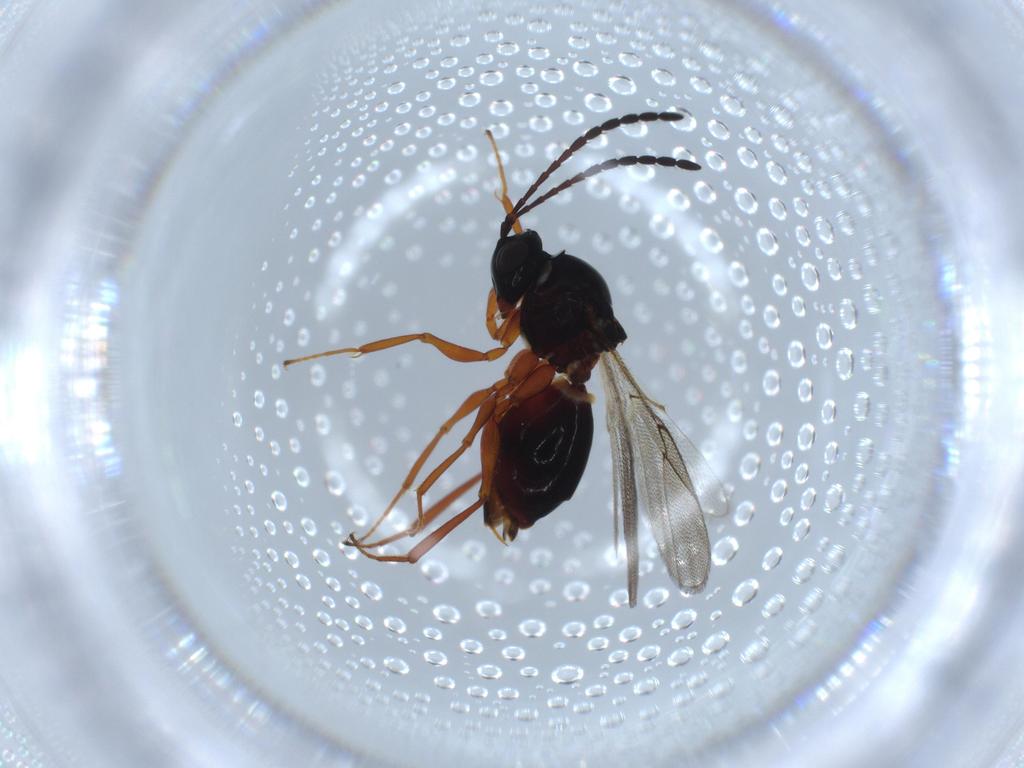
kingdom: Animalia
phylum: Arthropoda
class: Insecta
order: Hymenoptera
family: Figitidae
